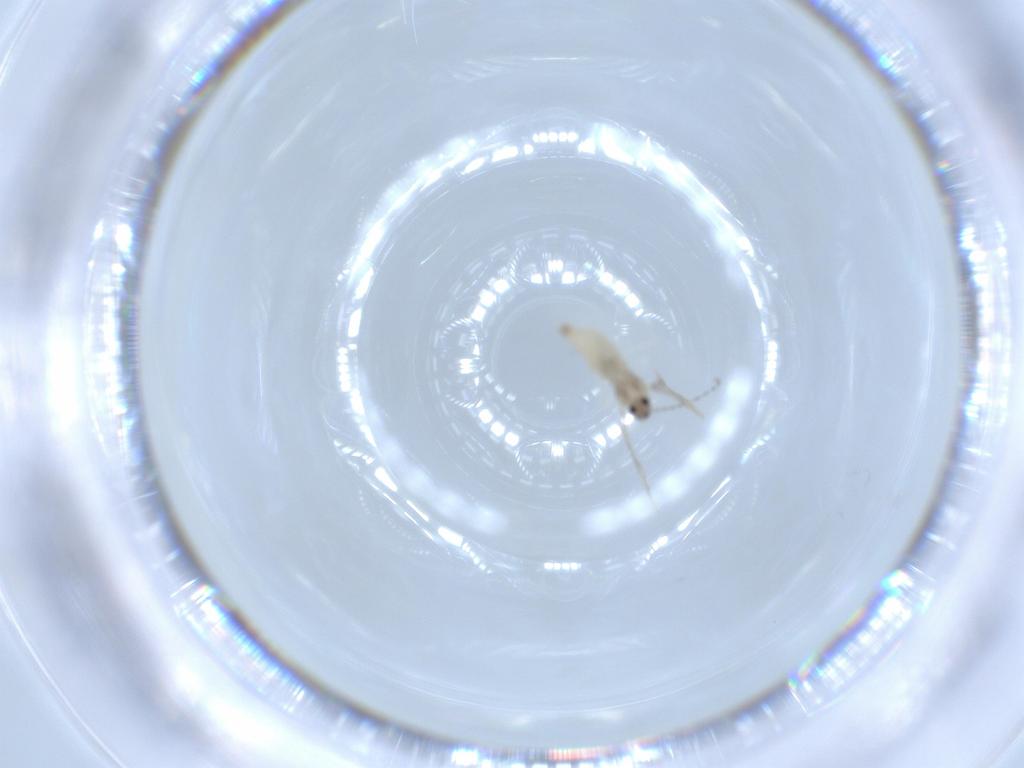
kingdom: Animalia
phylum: Arthropoda
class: Insecta
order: Diptera
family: Cecidomyiidae
